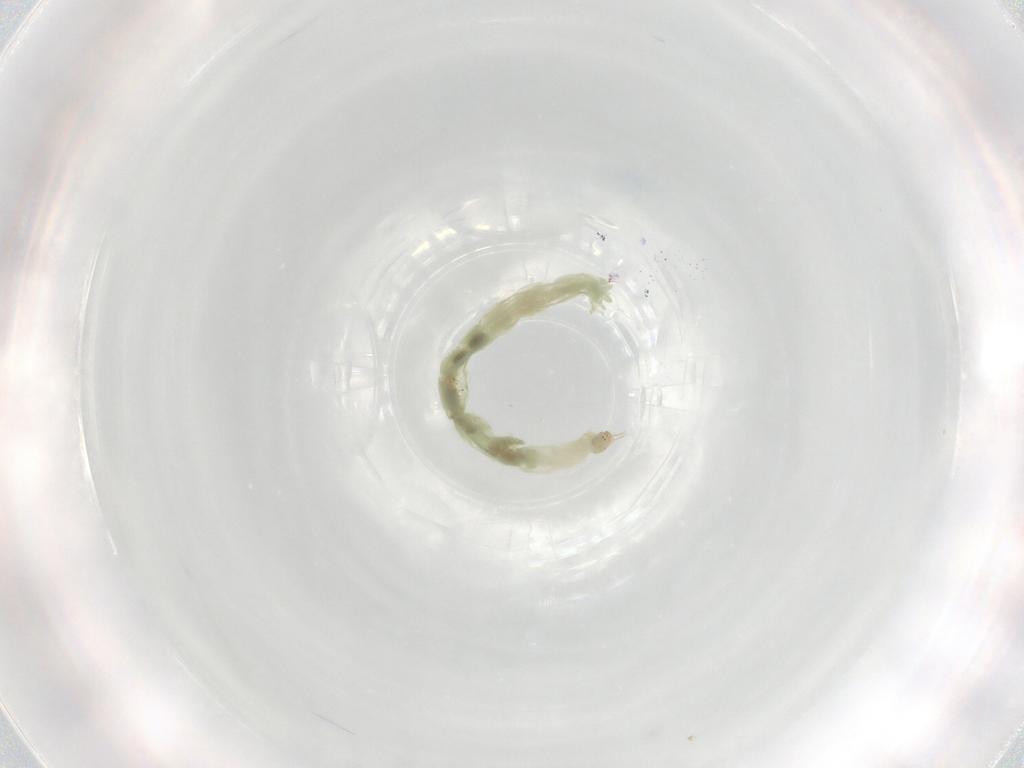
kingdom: Animalia
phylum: Arthropoda
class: Insecta
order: Diptera
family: Chironomidae
